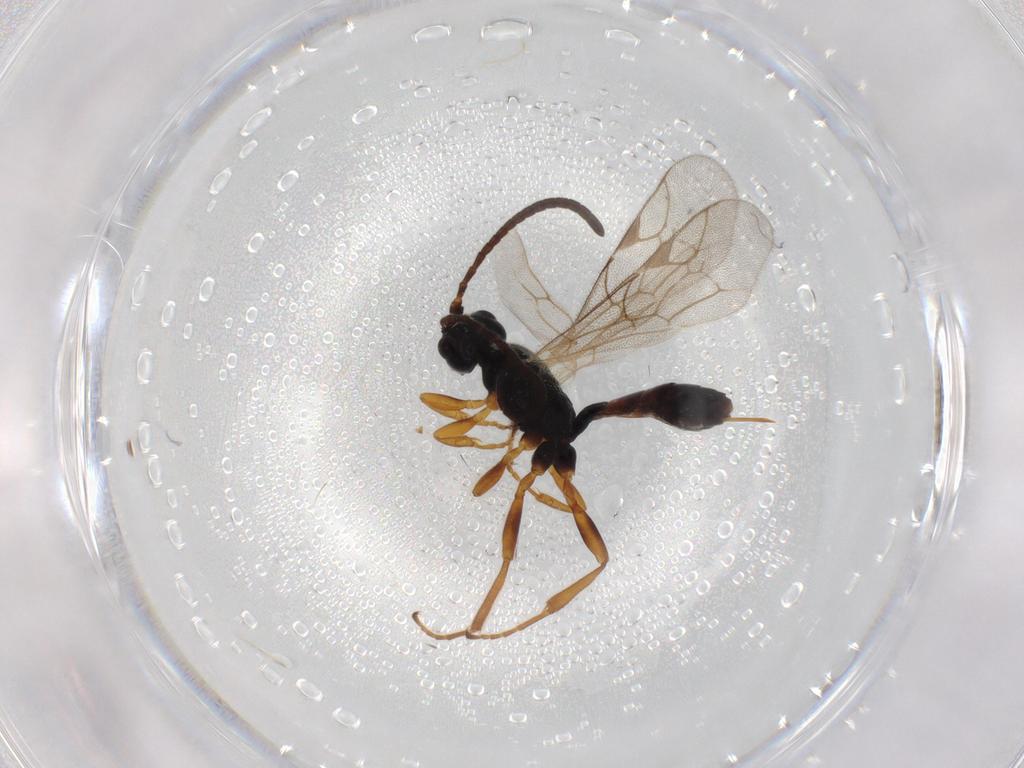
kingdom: Animalia
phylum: Arthropoda
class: Insecta
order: Hymenoptera
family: Ichneumonidae
